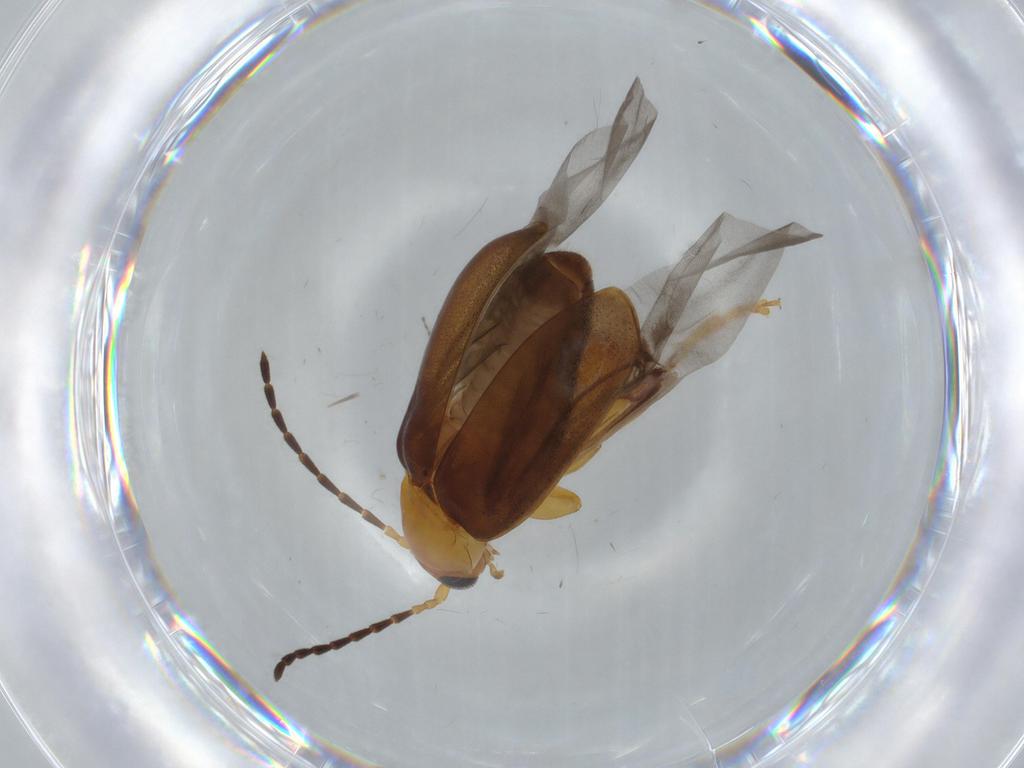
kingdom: Animalia
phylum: Arthropoda
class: Insecta
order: Coleoptera
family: Chrysomelidae
